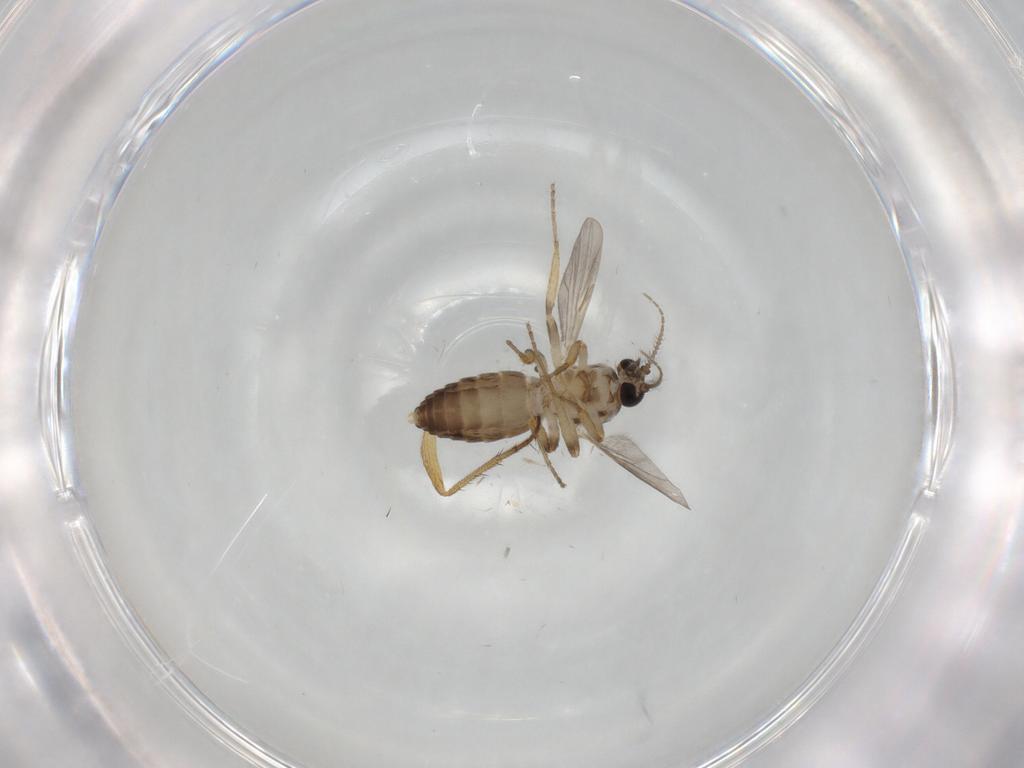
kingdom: Animalia
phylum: Arthropoda
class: Insecta
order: Diptera
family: Ceratopogonidae
